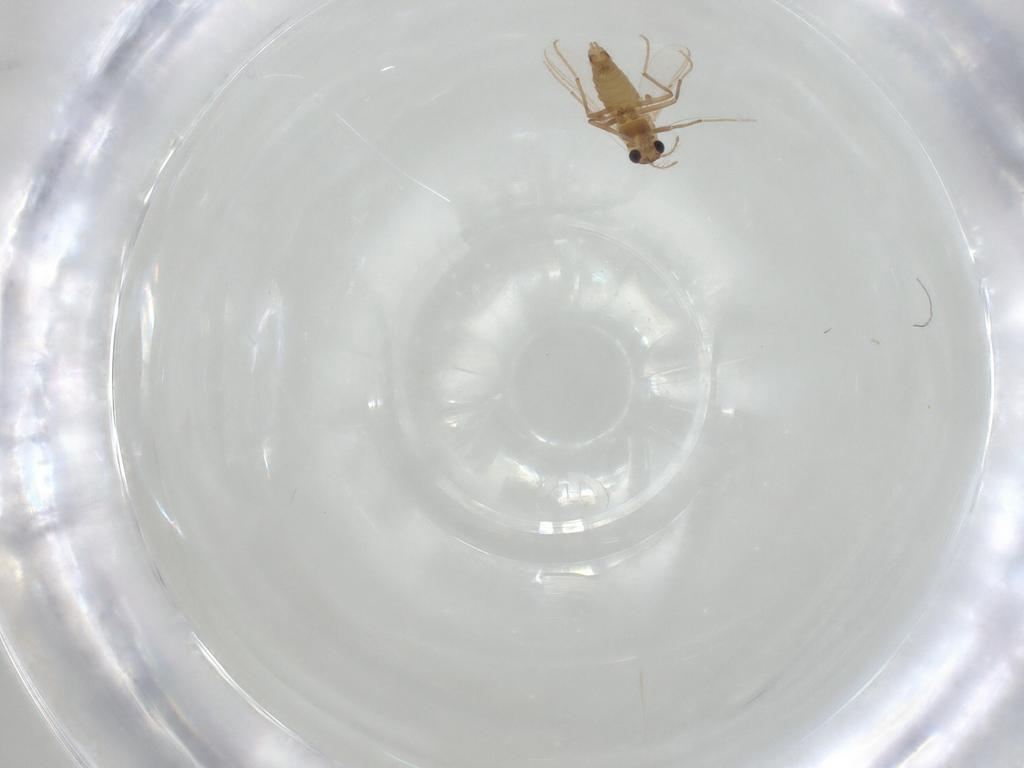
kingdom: Animalia
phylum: Arthropoda
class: Insecta
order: Diptera
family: Chironomidae
